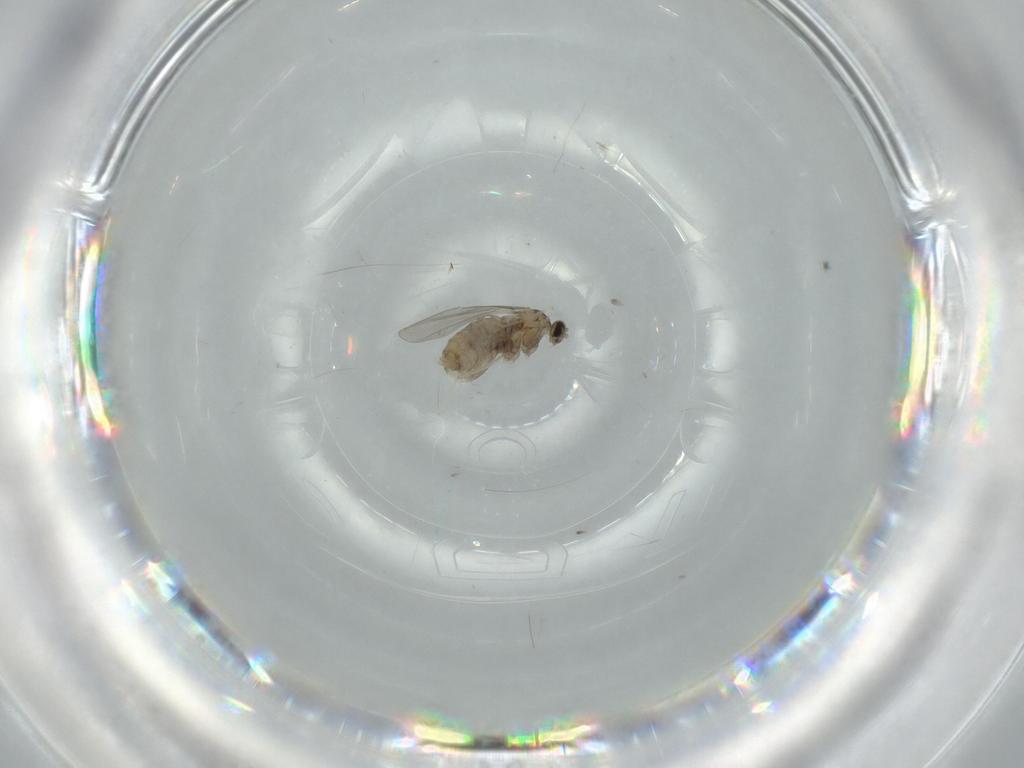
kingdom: Animalia
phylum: Arthropoda
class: Insecta
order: Diptera
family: Cecidomyiidae
